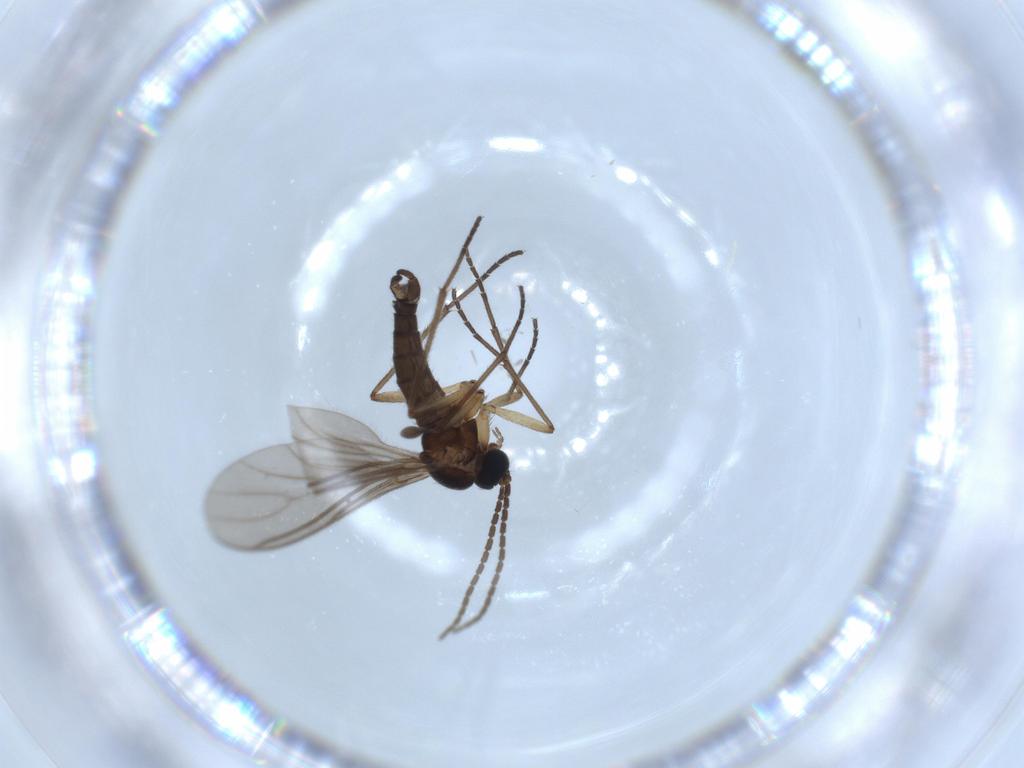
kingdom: Animalia
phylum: Arthropoda
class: Insecta
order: Diptera
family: Sciaridae
